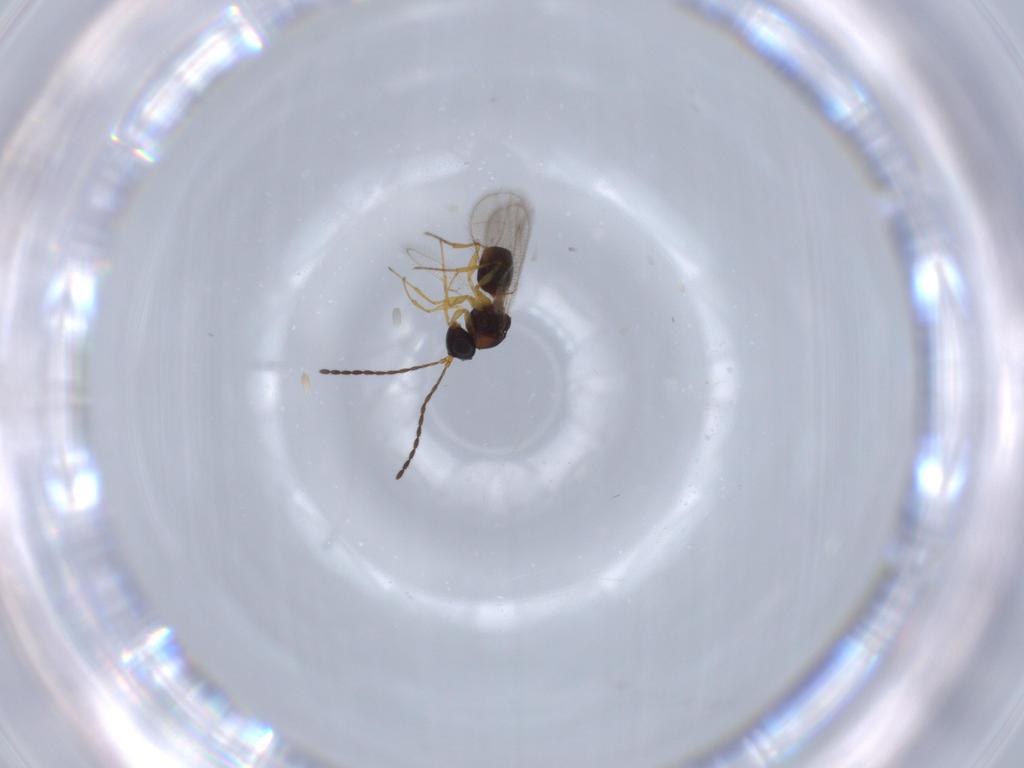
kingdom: Animalia
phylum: Arthropoda
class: Insecta
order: Hymenoptera
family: Figitidae
